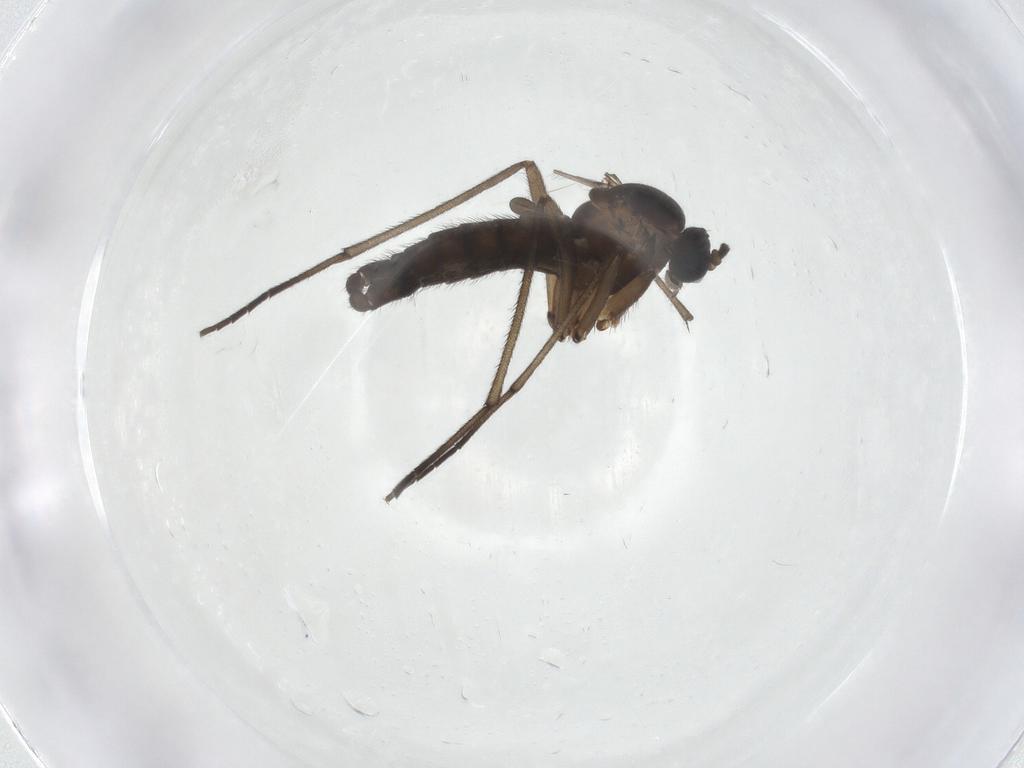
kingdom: Animalia
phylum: Arthropoda
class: Insecta
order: Diptera
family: Sciaridae
